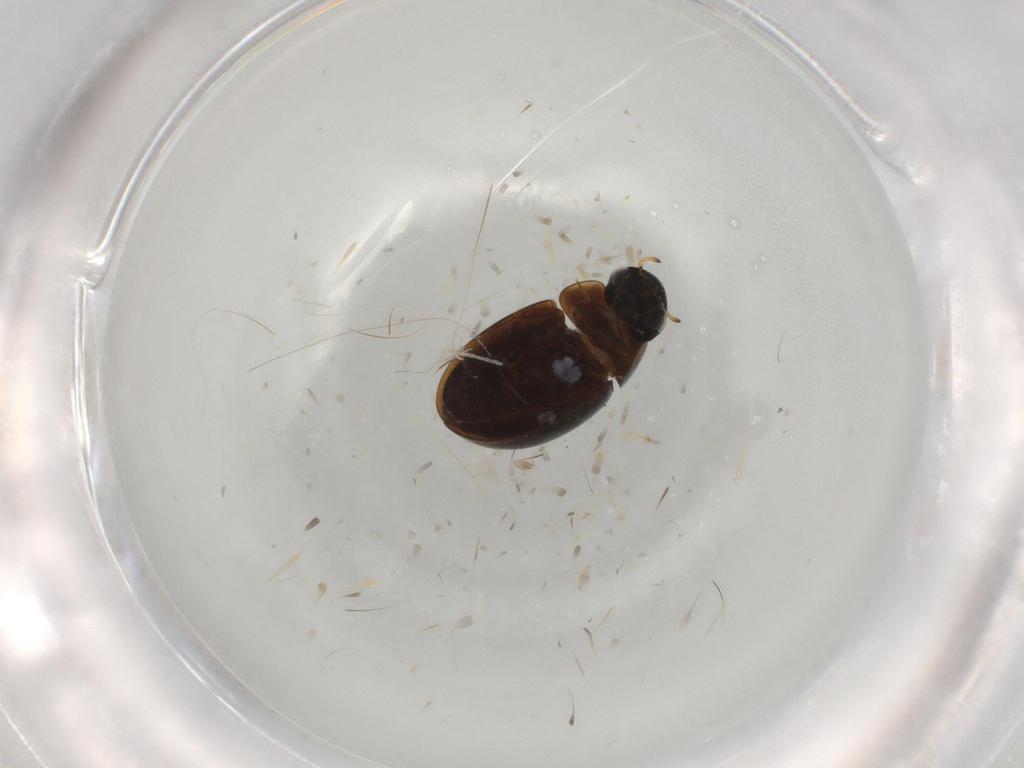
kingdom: Animalia
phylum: Arthropoda
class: Insecta
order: Coleoptera
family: Hydrophilidae
